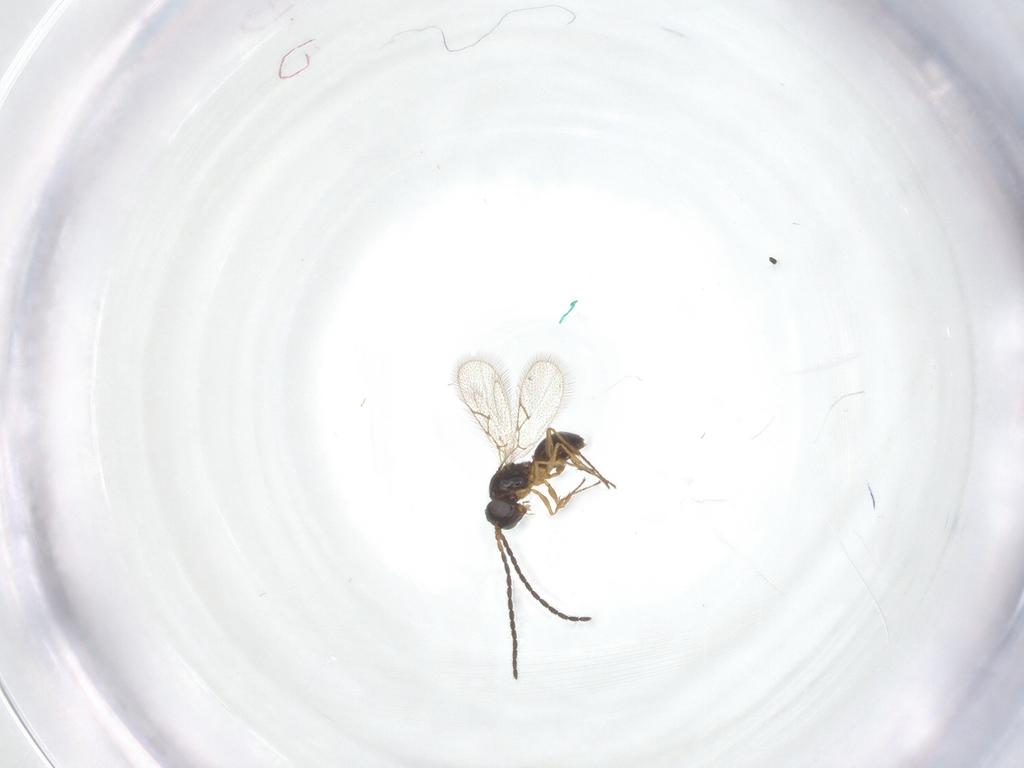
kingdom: Animalia
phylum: Arthropoda
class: Insecta
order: Hymenoptera
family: Figitidae
